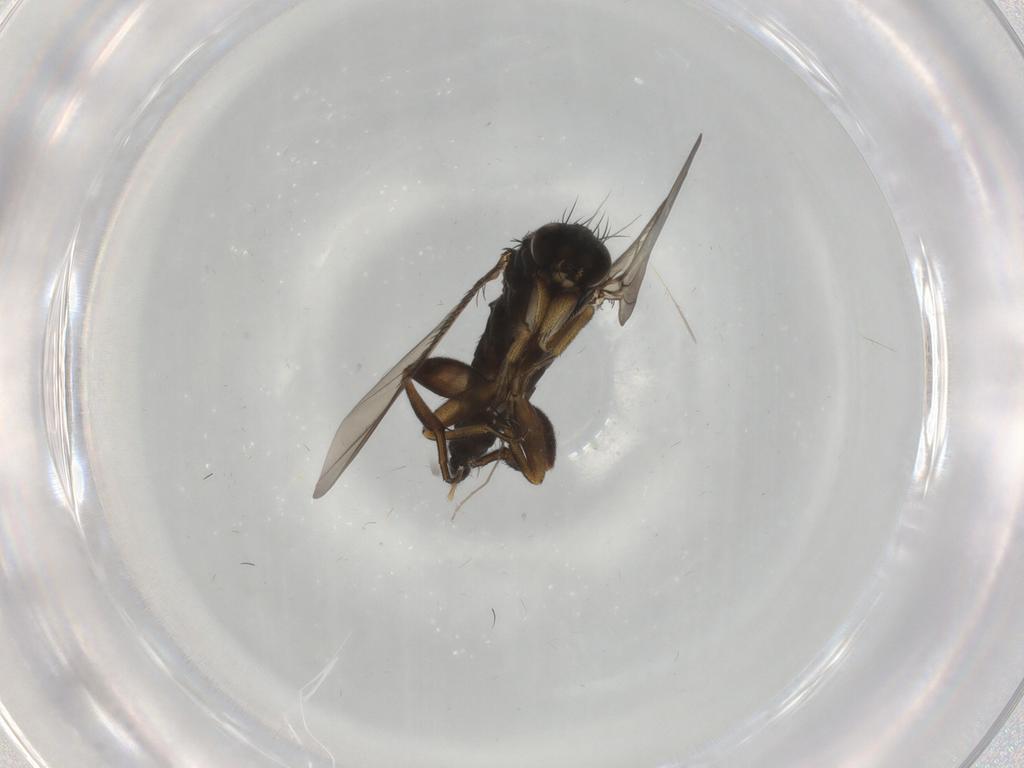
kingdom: Animalia
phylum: Arthropoda
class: Insecta
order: Diptera
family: Phoridae
